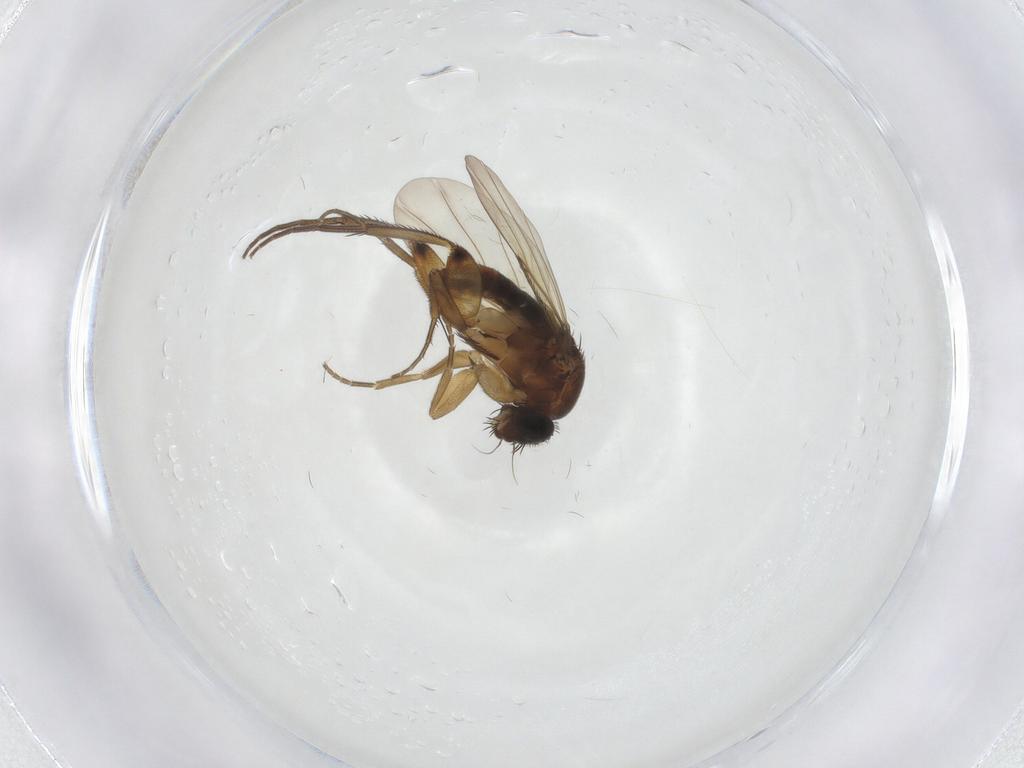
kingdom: Animalia
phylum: Arthropoda
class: Insecta
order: Diptera
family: Phoridae
